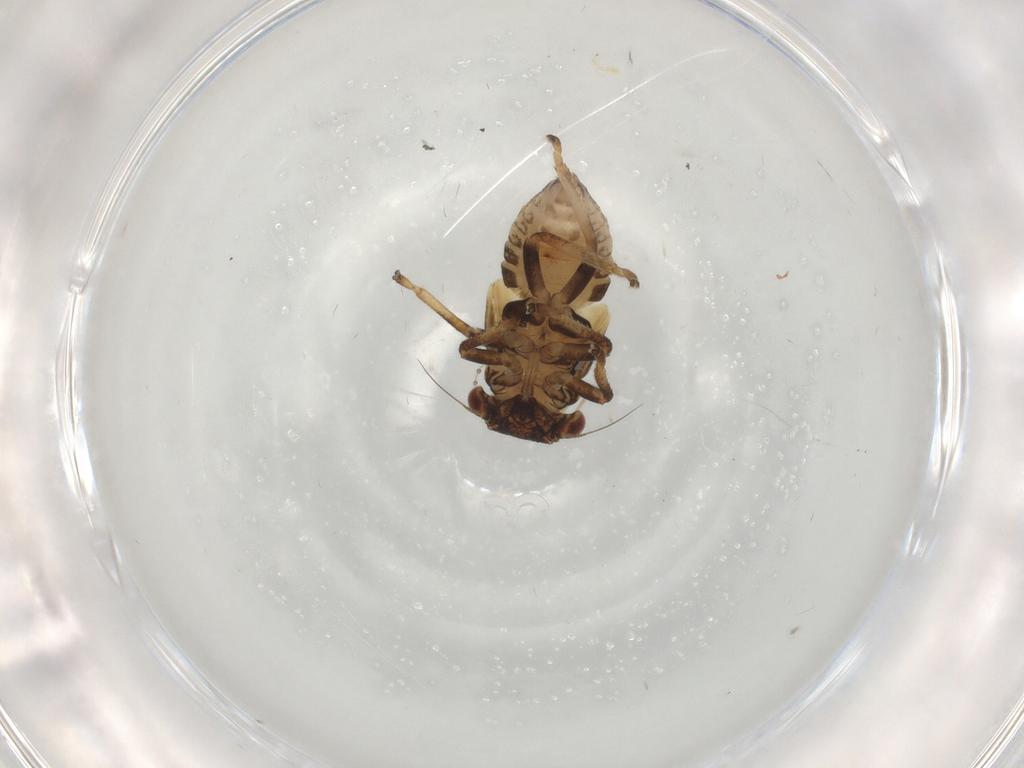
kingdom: Animalia
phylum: Arthropoda
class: Insecta
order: Hemiptera
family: Cicadellidae
